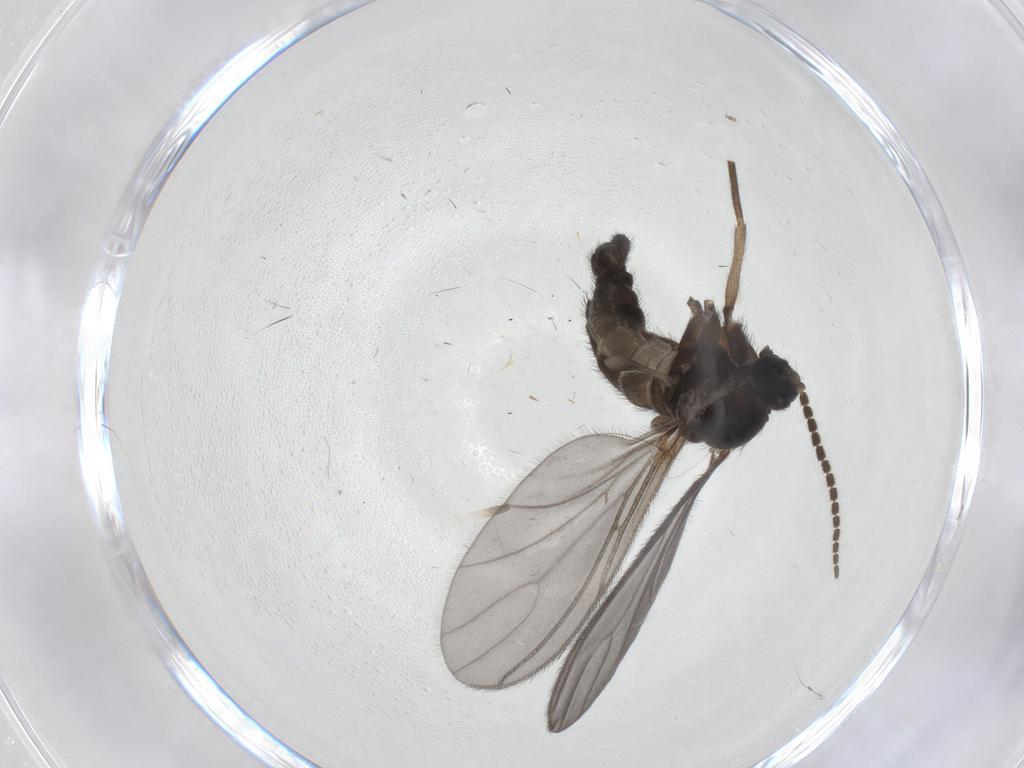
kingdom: Animalia
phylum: Arthropoda
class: Insecta
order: Diptera
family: Sciaridae
